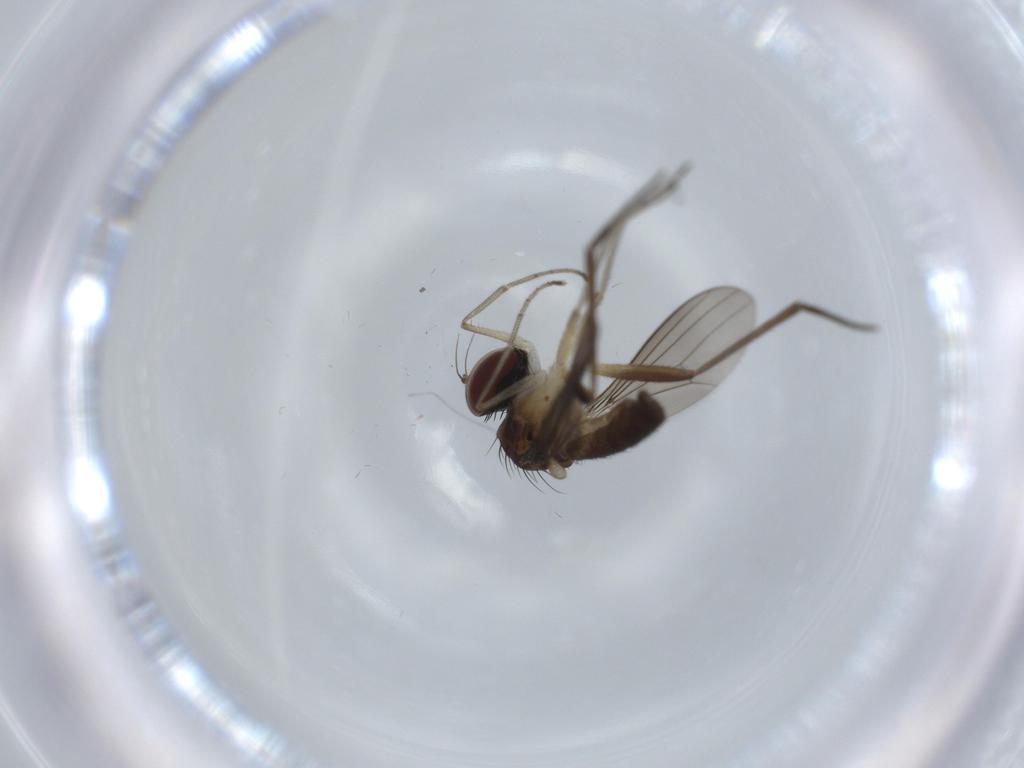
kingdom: Animalia
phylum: Arthropoda
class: Insecta
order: Diptera
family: Dolichopodidae
